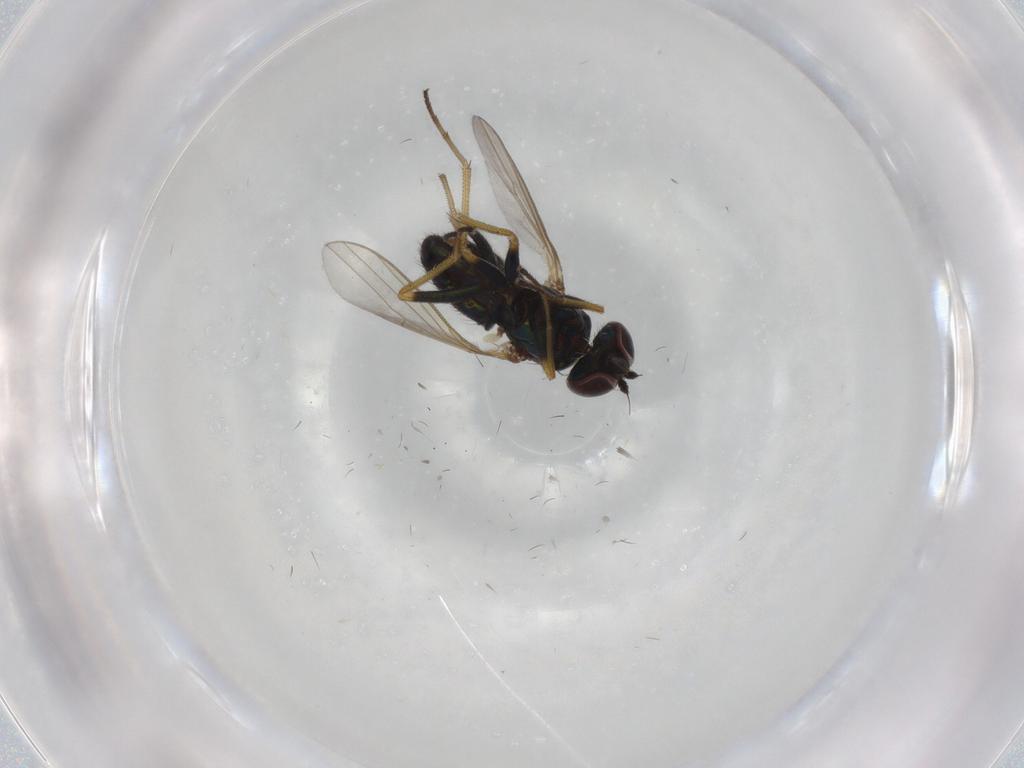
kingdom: Animalia
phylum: Arthropoda
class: Insecta
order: Diptera
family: Dolichopodidae
